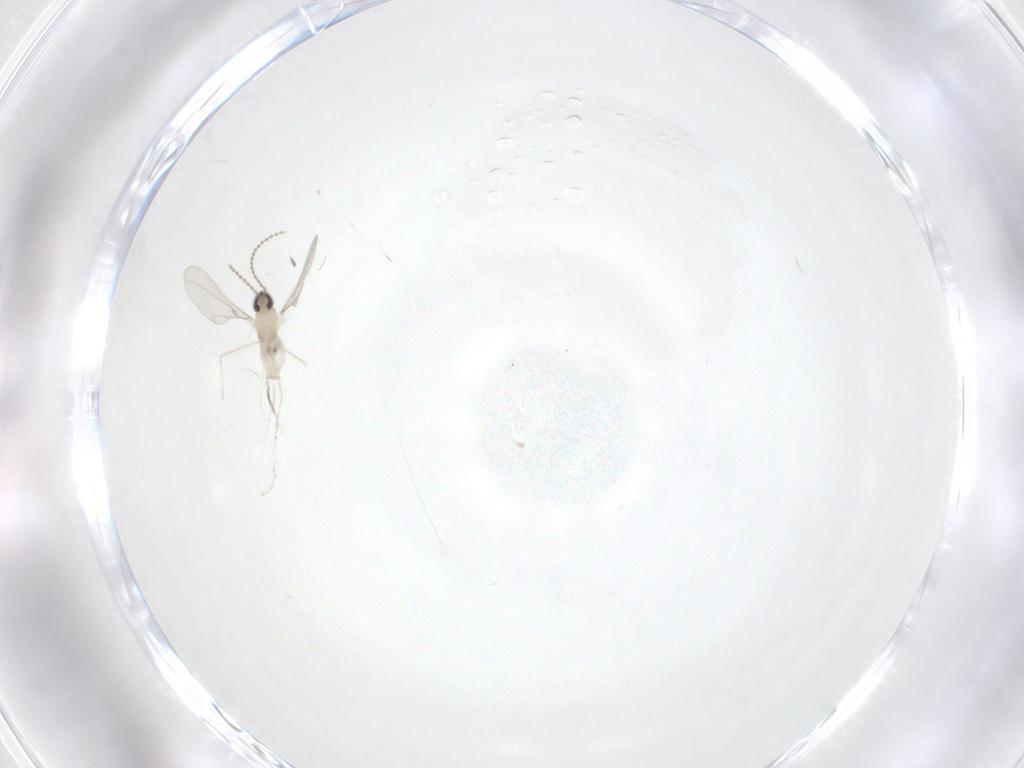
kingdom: Animalia
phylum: Arthropoda
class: Insecta
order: Diptera
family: Cecidomyiidae
